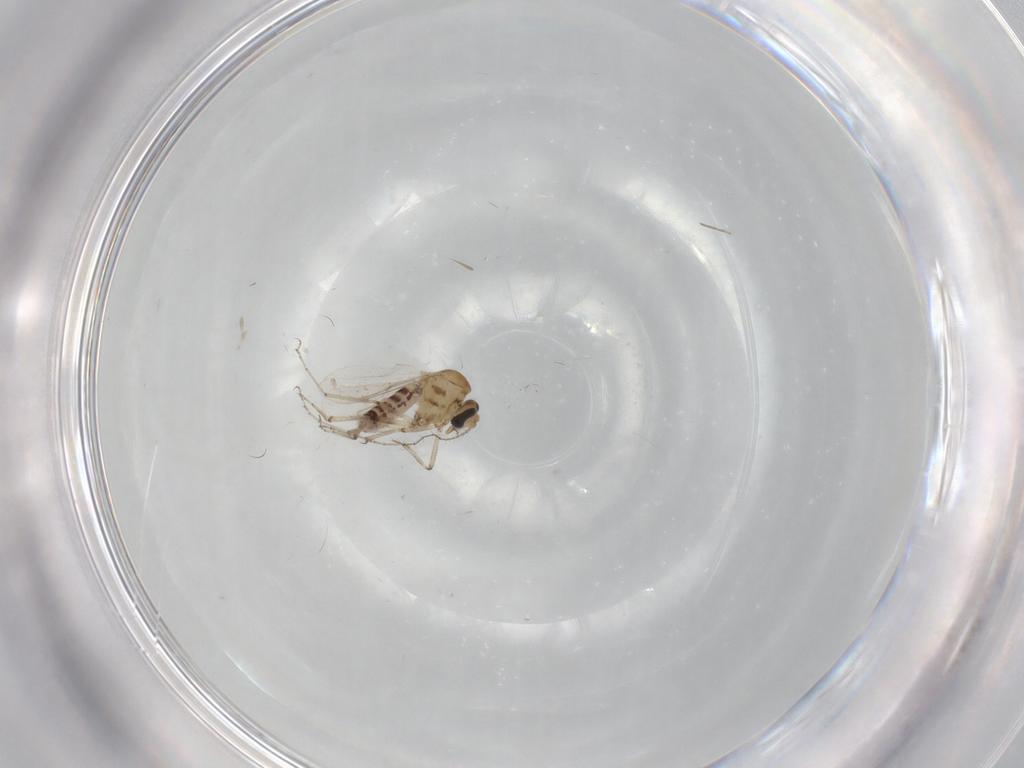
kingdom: Animalia
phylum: Arthropoda
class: Insecta
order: Diptera
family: Ceratopogonidae
